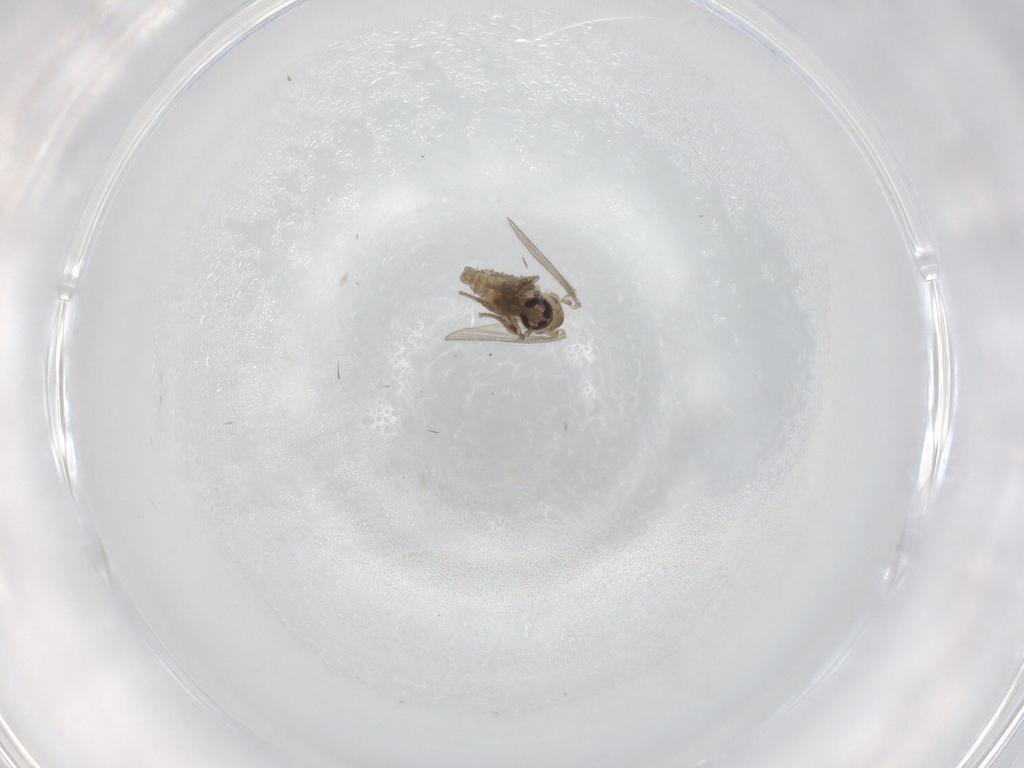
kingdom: Animalia
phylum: Arthropoda
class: Insecta
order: Diptera
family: Psychodidae
